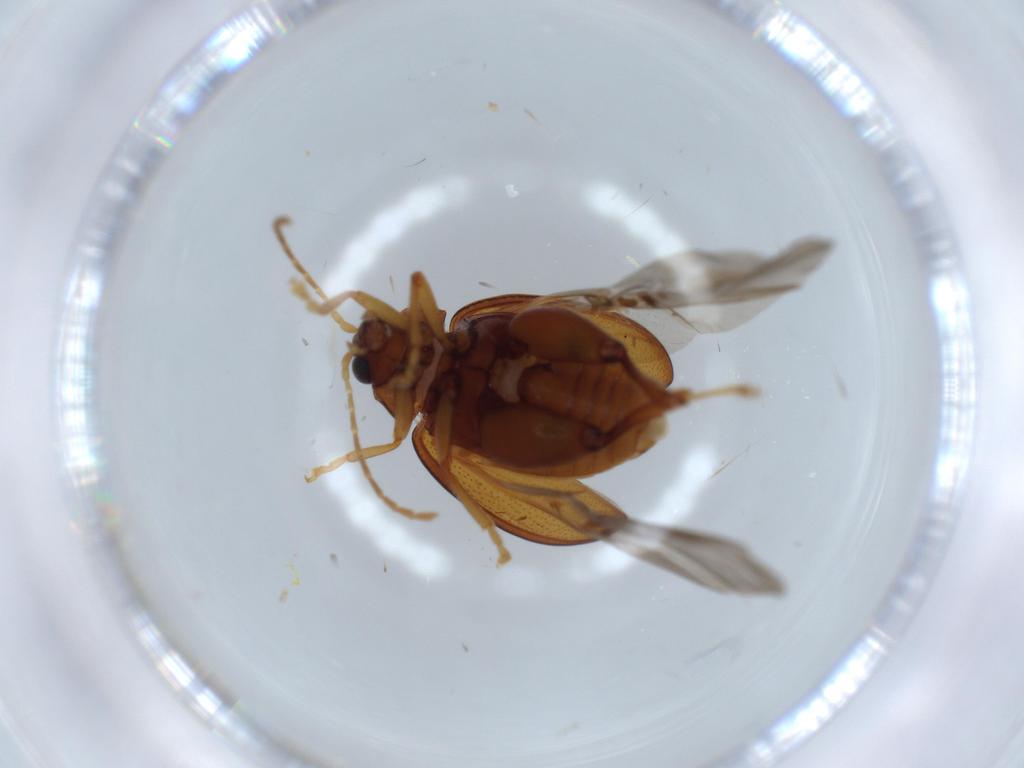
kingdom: Animalia
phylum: Arthropoda
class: Insecta
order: Coleoptera
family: Chrysomelidae
